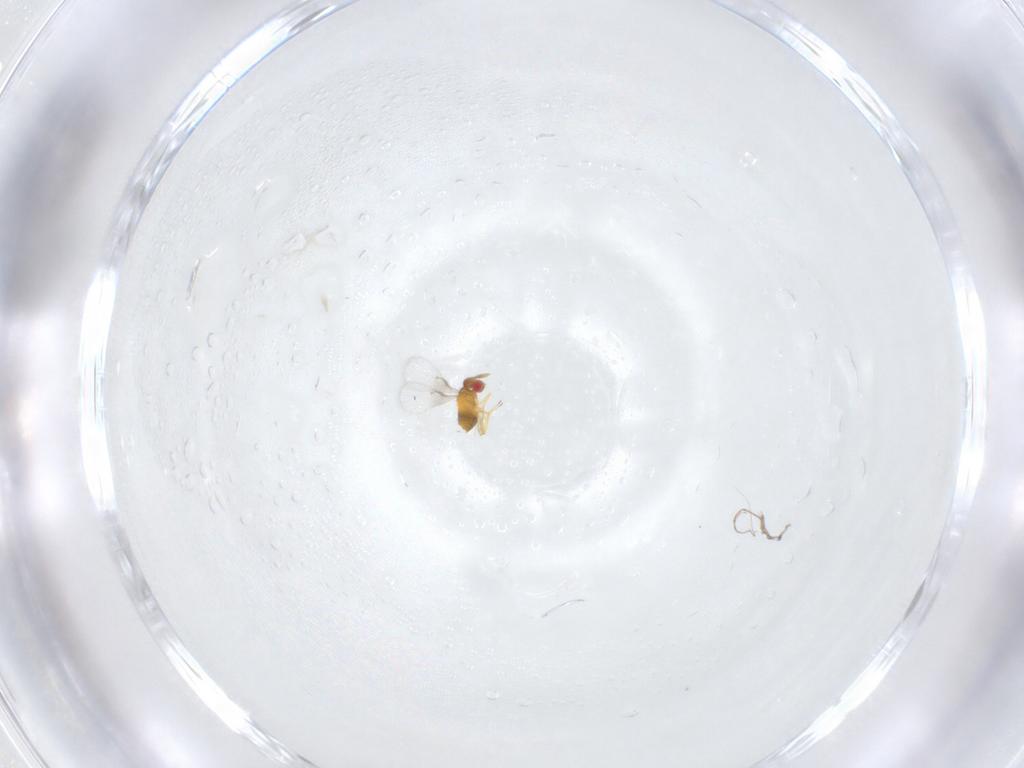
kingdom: Animalia
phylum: Arthropoda
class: Insecta
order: Hymenoptera
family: Trichogrammatidae
